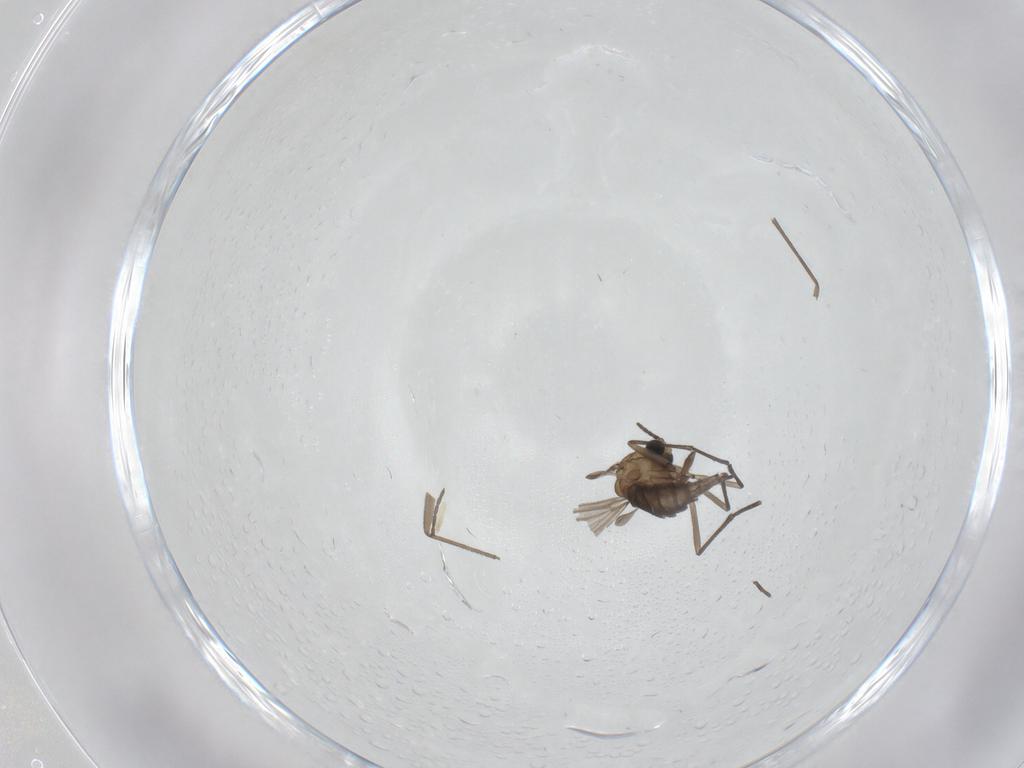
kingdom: Animalia
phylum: Arthropoda
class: Insecta
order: Diptera
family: Sciaridae
